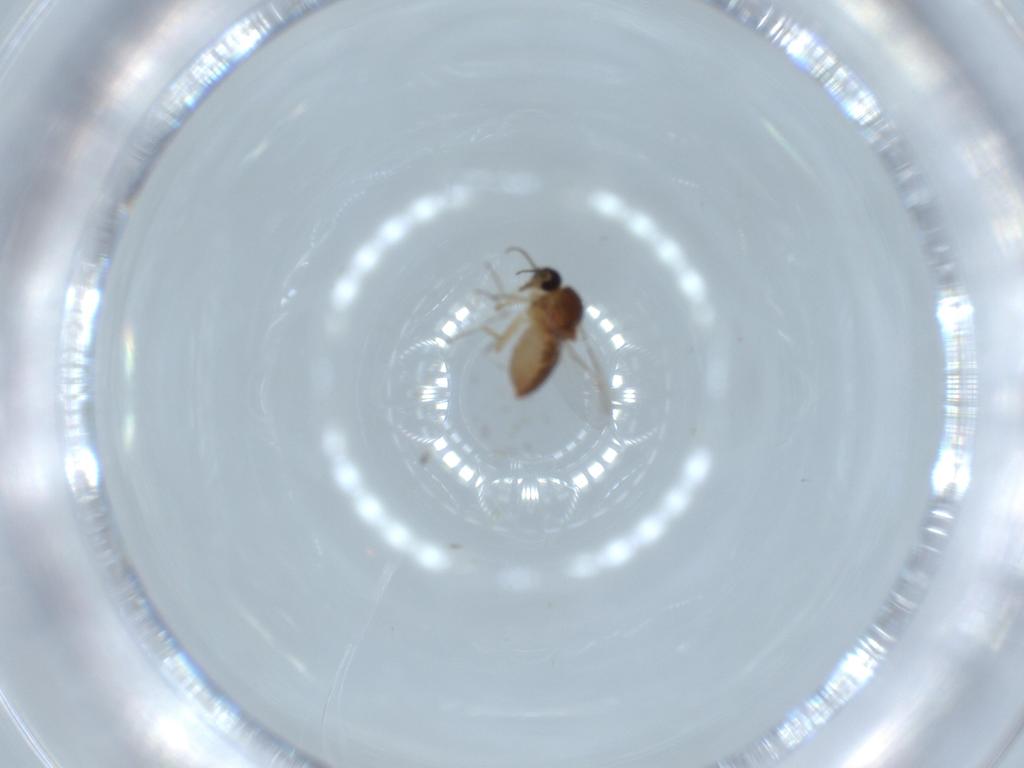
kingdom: Animalia
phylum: Arthropoda
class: Insecta
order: Diptera
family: Ceratopogonidae
